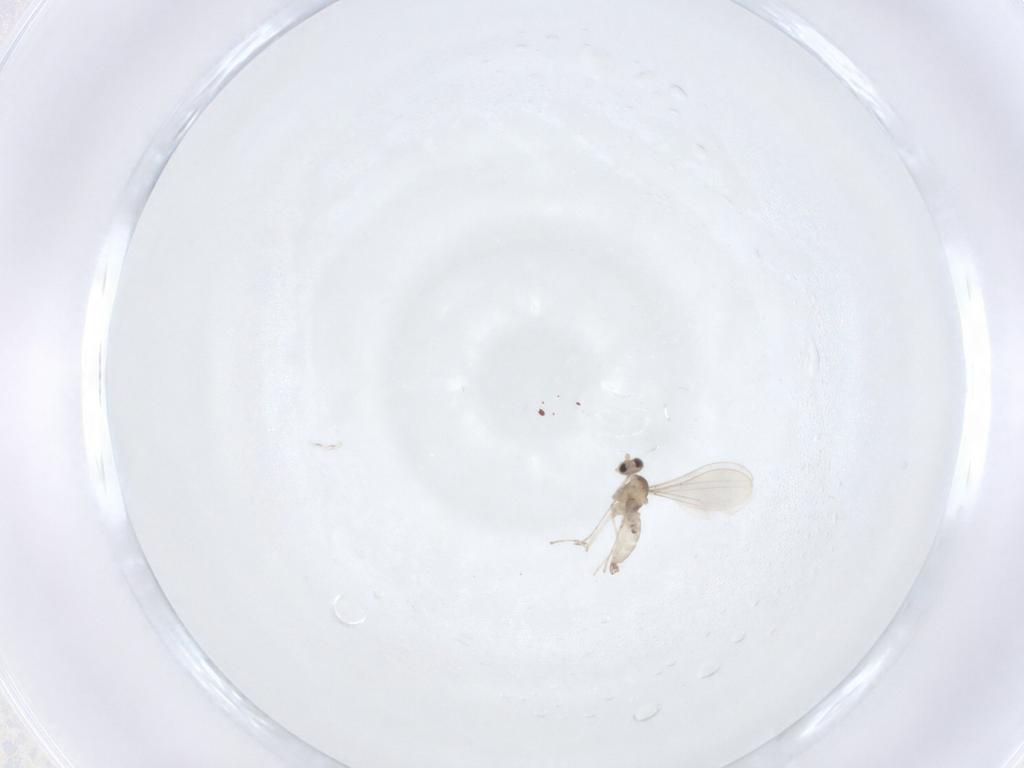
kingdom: Animalia
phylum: Arthropoda
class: Insecta
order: Diptera
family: Cecidomyiidae
